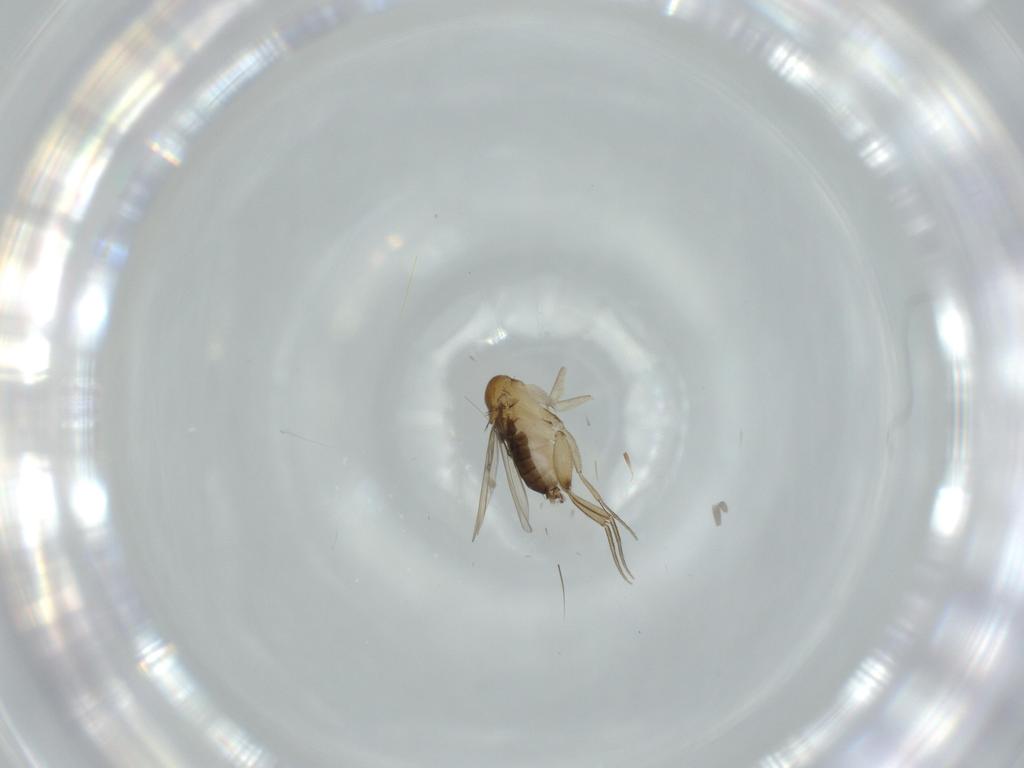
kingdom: Animalia
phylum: Arthropoda
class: Insecta
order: Diptera
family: Phoridae
